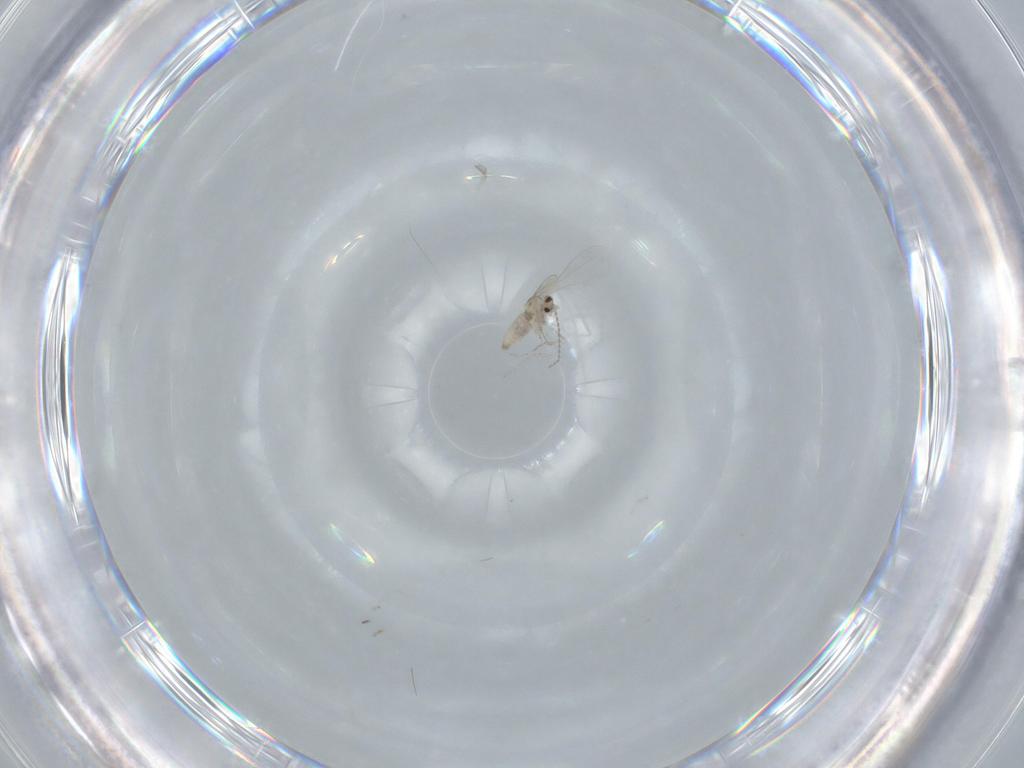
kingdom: Animalia
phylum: Arthropoda
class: Insecta
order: Diptera
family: Cecidomyiidae
